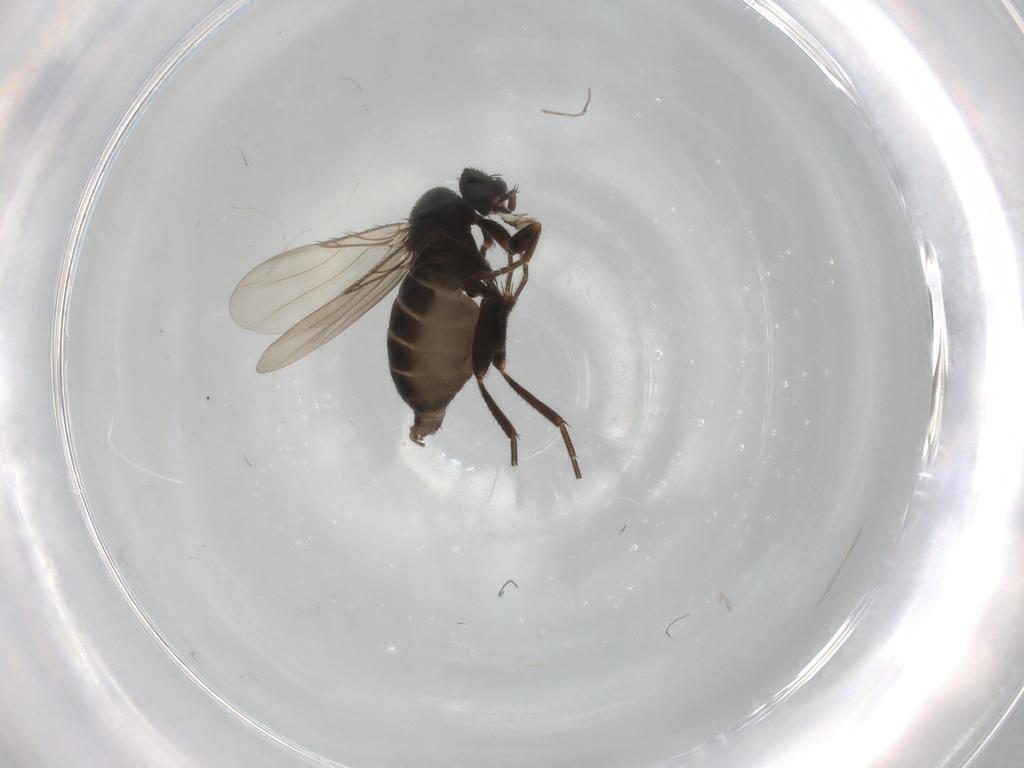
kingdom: Animalia
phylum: Arthropoda
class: Insecta
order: Diptera
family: Phoridae
